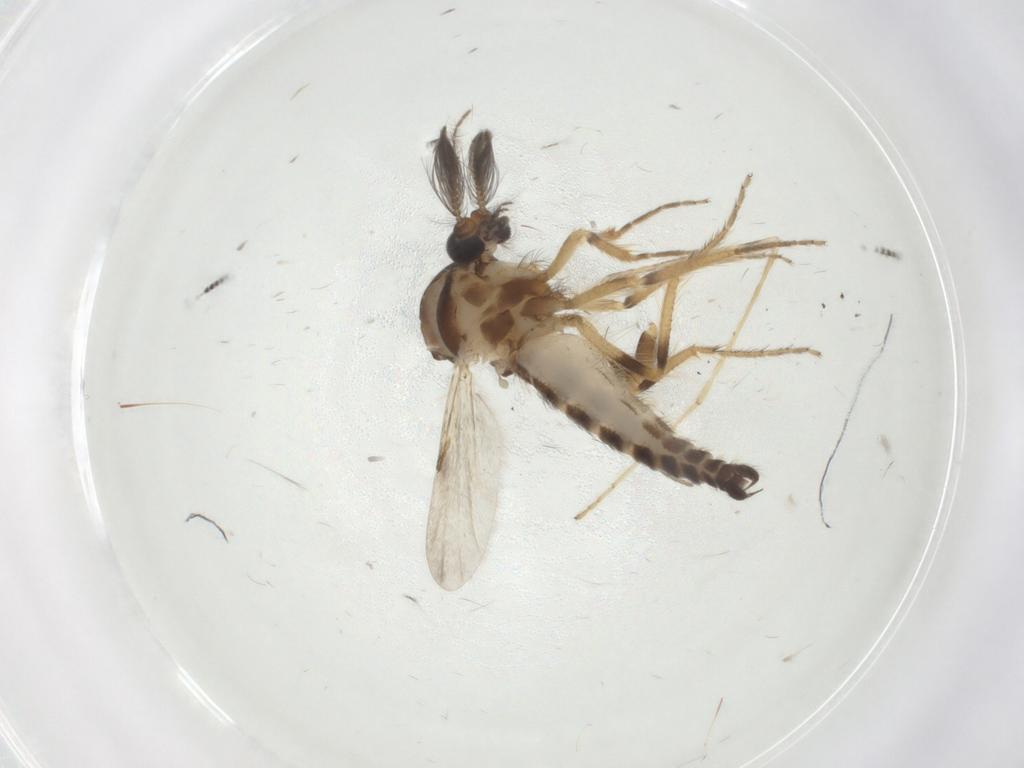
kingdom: Animalia
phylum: Arthropoda
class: Insecta
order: Diptera
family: Ceratopogonidae
